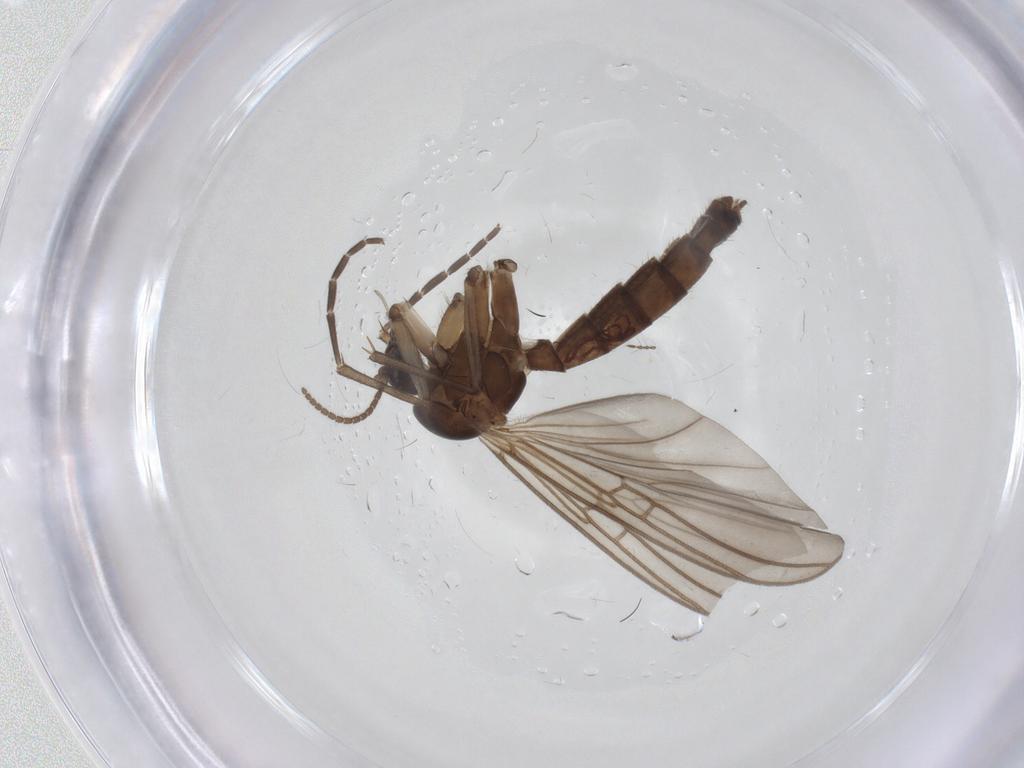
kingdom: Animalia
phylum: Arthropoda
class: Insecta
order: Diptera
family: Mycetophilidae
